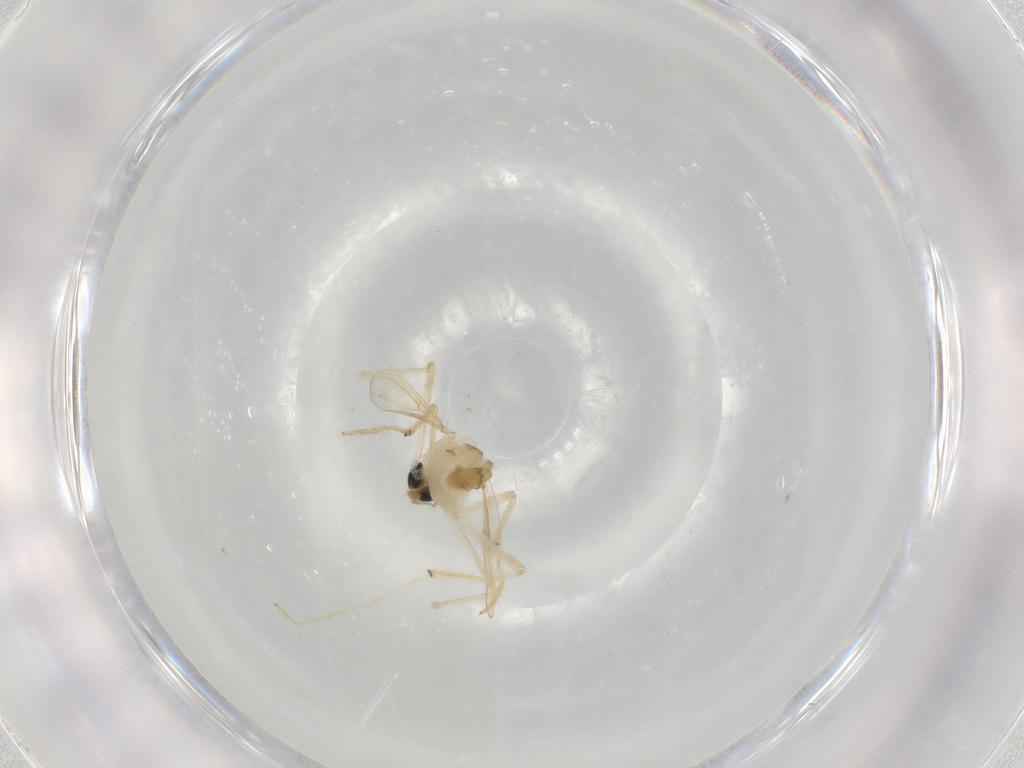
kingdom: Animalia
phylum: Arthropoda
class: Insecta
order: Diptera
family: Chironomidae
